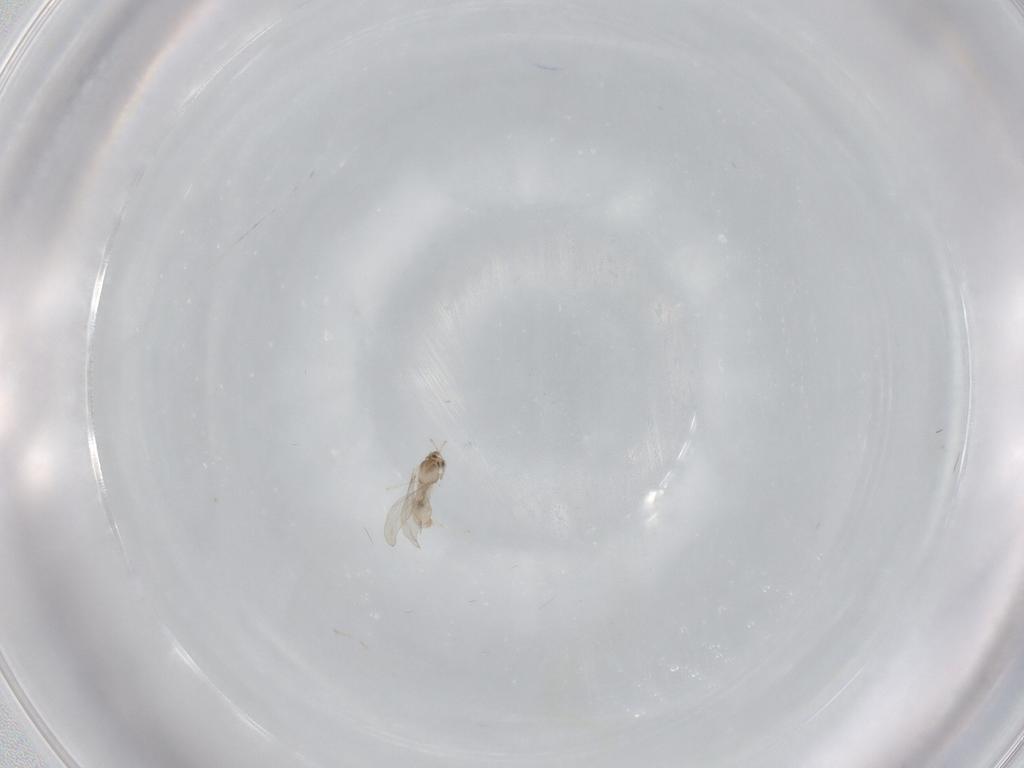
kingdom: Animalia
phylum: Arthropoda
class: Insecta
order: Diptera
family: Cecidomyiidae
